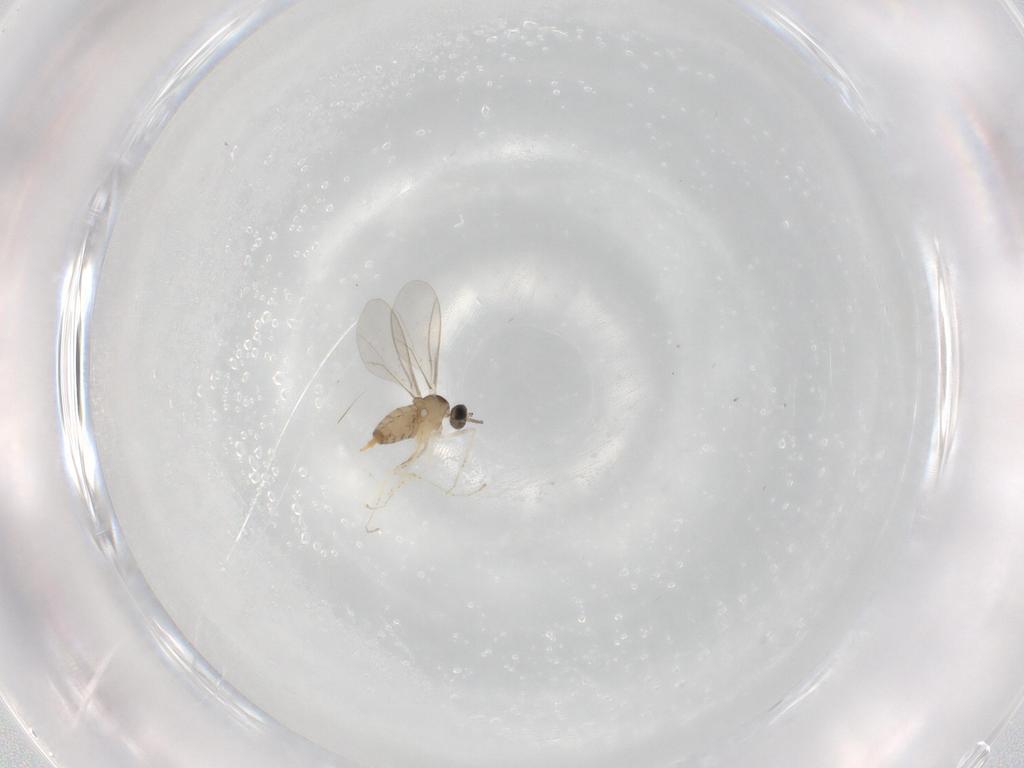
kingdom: Animalia
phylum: Arthropoda
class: Insecta
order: Diptera
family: Cecidomyiidae
